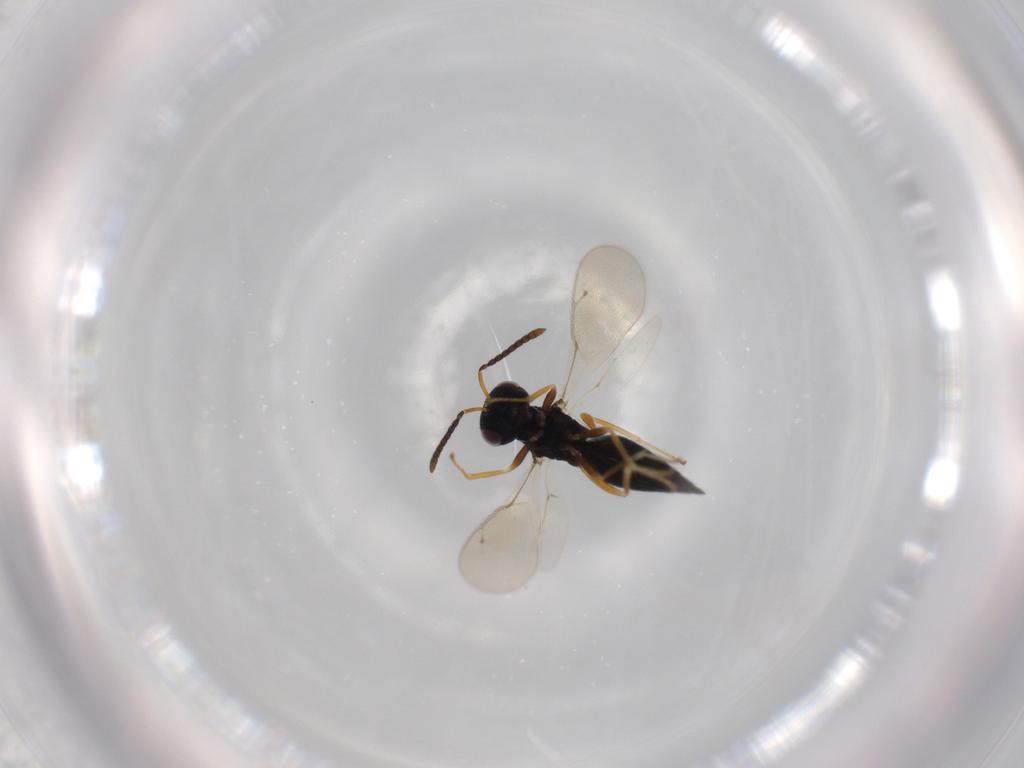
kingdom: Animalia
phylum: Arthropoda
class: Insecta
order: Hymenoptera
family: Pteromalidae
